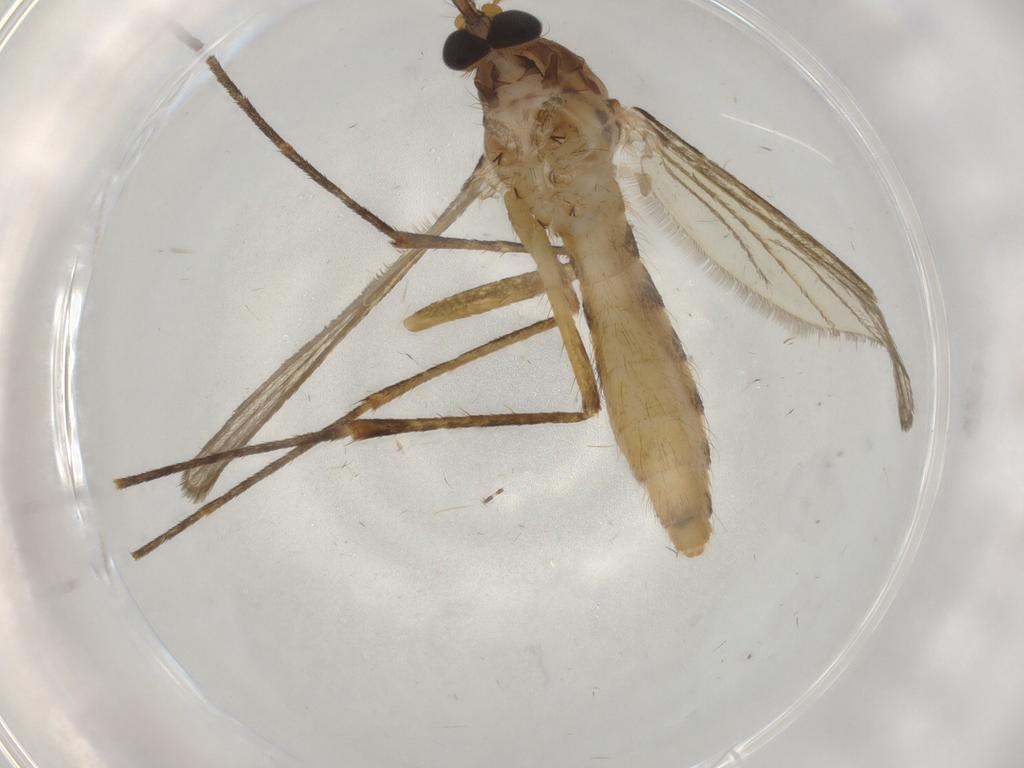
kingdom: Animalia
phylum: Arthropoda
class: Insecta
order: Diptera
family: Culicidae
